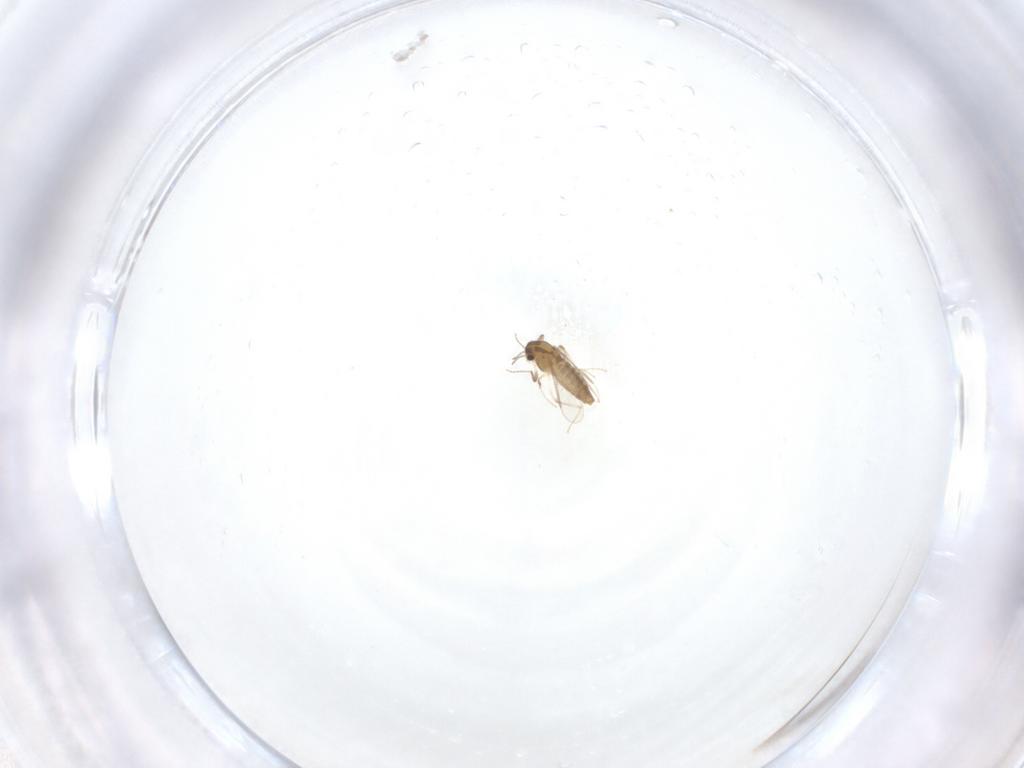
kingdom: Animalia
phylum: Arthropoda
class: Insecta
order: Diptera
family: Chironomidae
